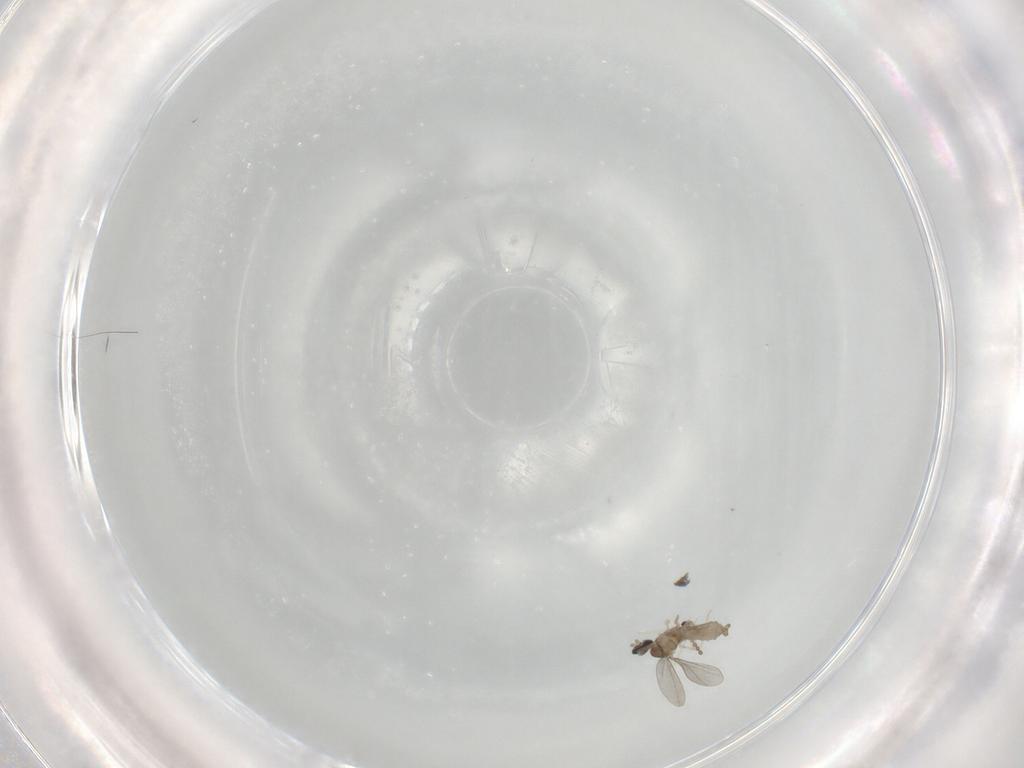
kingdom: Animalia
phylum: Arthropoda
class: Insecta
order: Diptera
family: Cecidomyiidae
